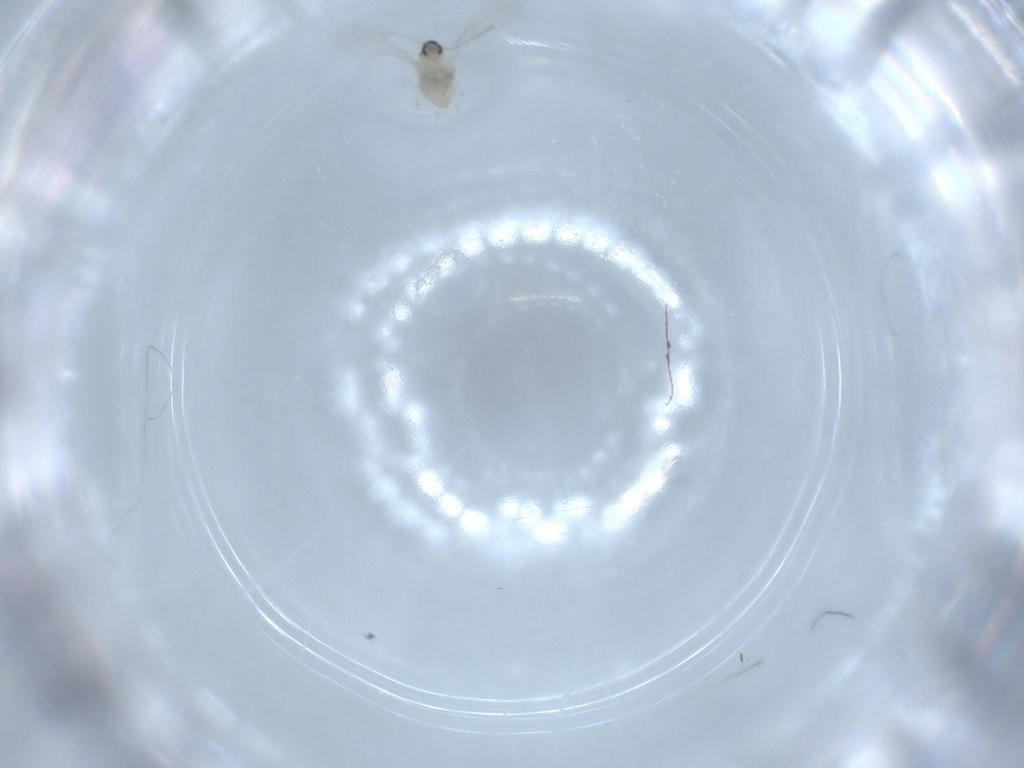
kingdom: Animalia
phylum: Arthropoda
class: Insecta
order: Diptera
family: Cecidomyiidae
